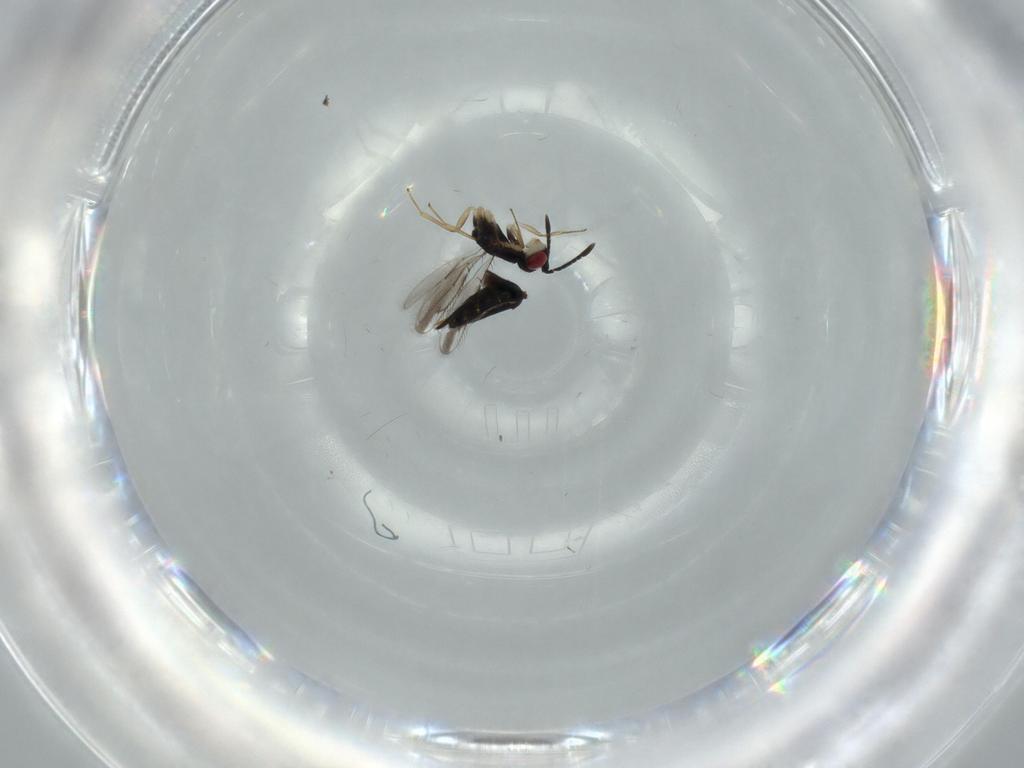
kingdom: Animalia
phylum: Arthropoda
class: Insecta
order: Hymenoptera
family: Pteromalidae
